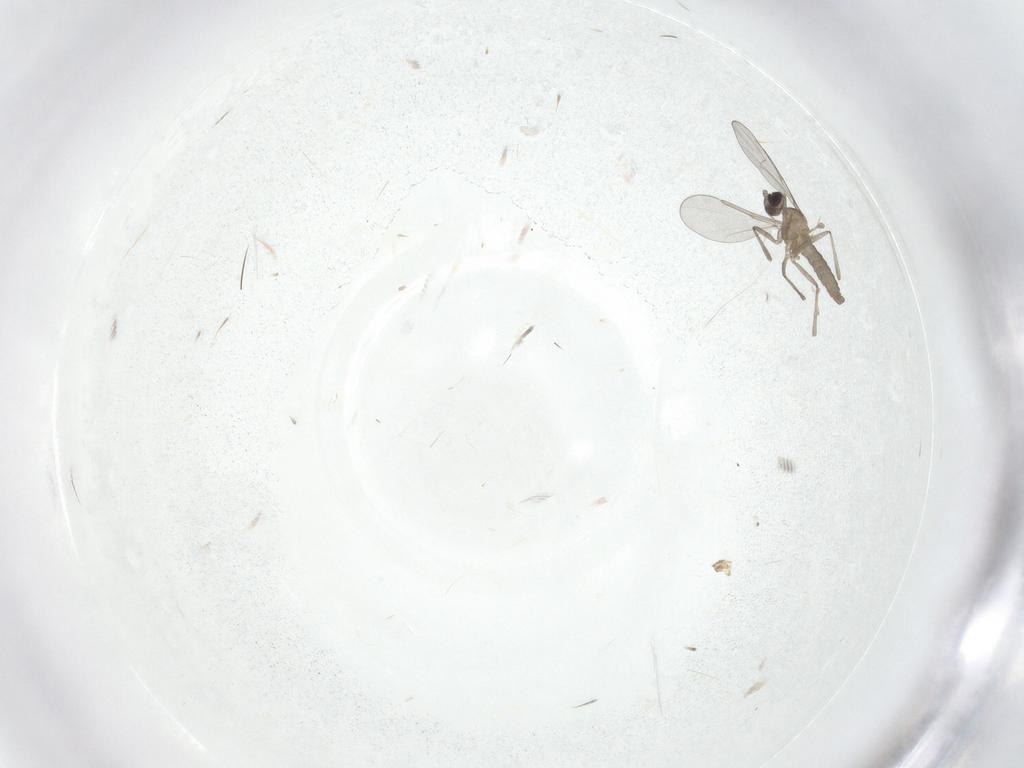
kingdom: Animalia
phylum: Arthropoda
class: Insecta
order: Diptera
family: Cecidomyiidae
